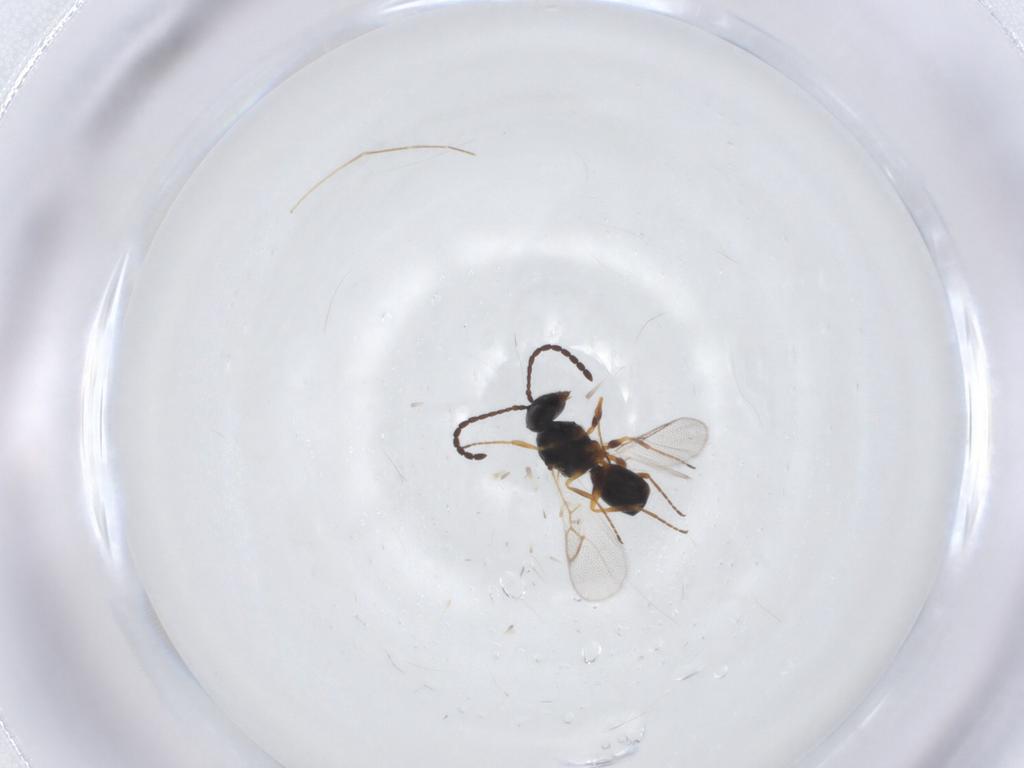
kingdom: Animalia
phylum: Arthropoda
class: Insecta
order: Hymenoptera
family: Figitidae
